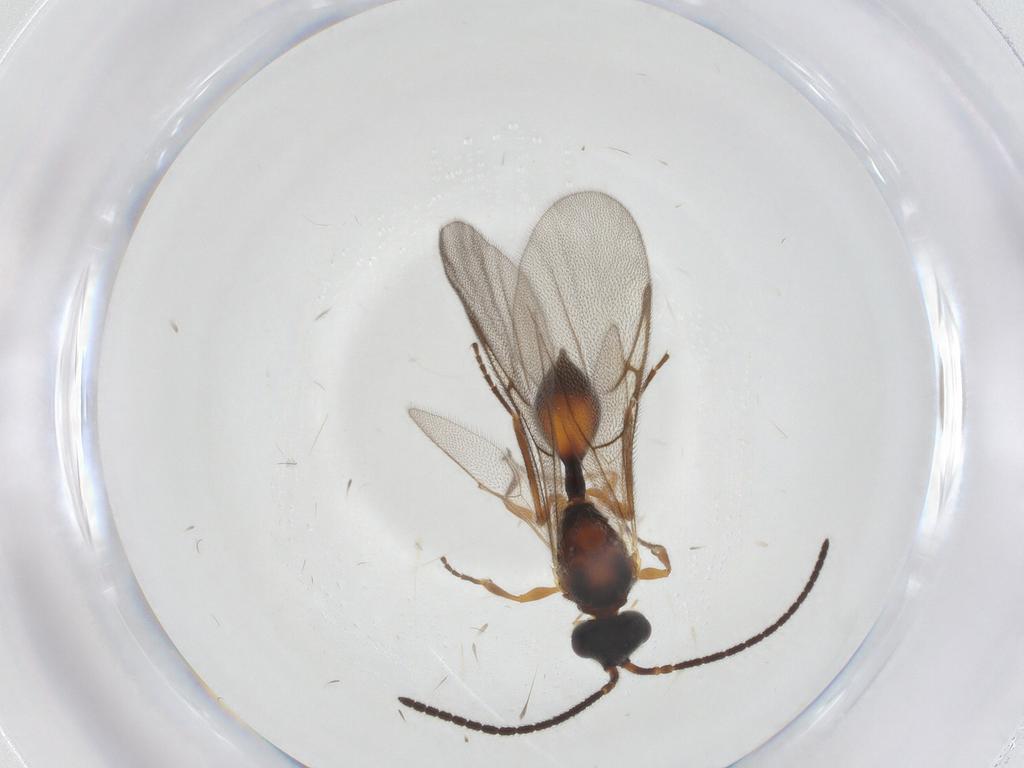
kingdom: Animalia
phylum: Arthropoda
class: Insecta
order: Hymenoptera
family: Diapriidae
